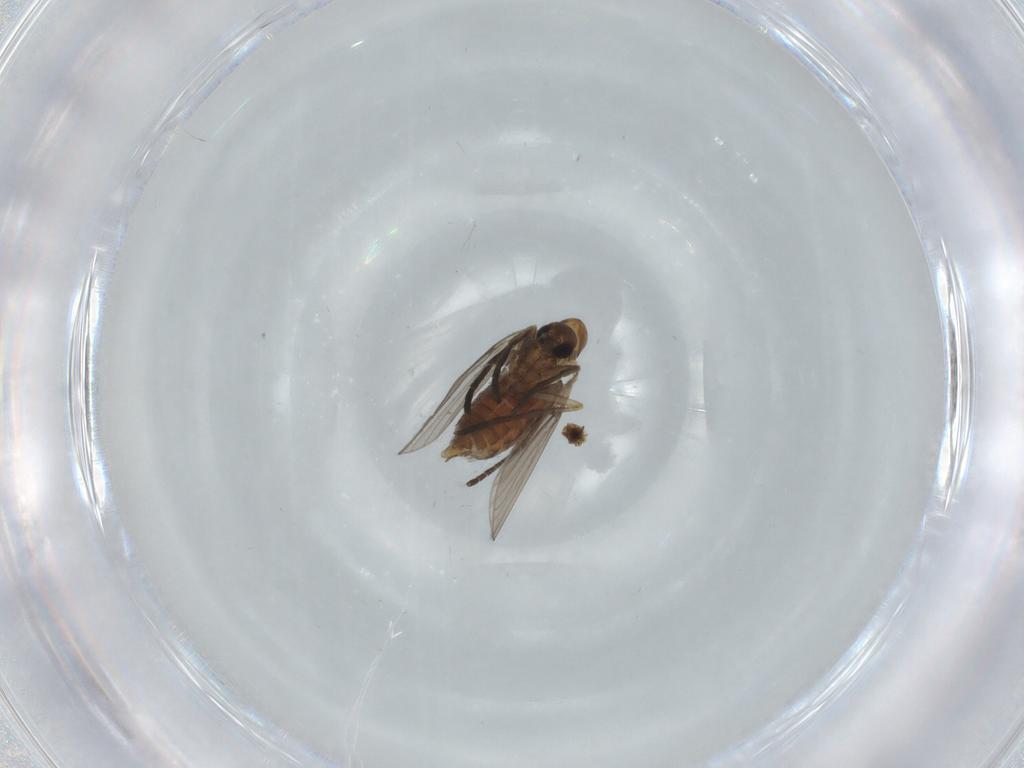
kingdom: Animalia
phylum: Arthropoda
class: Insecta
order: Diptera
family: Psychodidae
